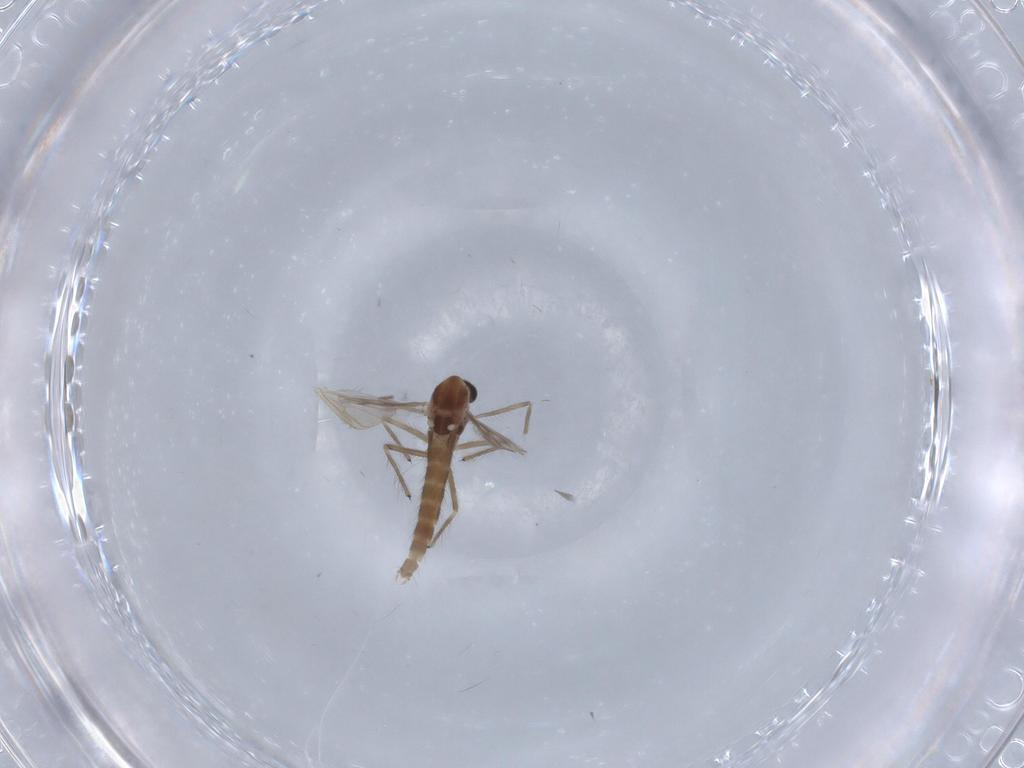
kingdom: Animalia
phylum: Arthropoda
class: Insecta
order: Diptera
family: Chironomidae
